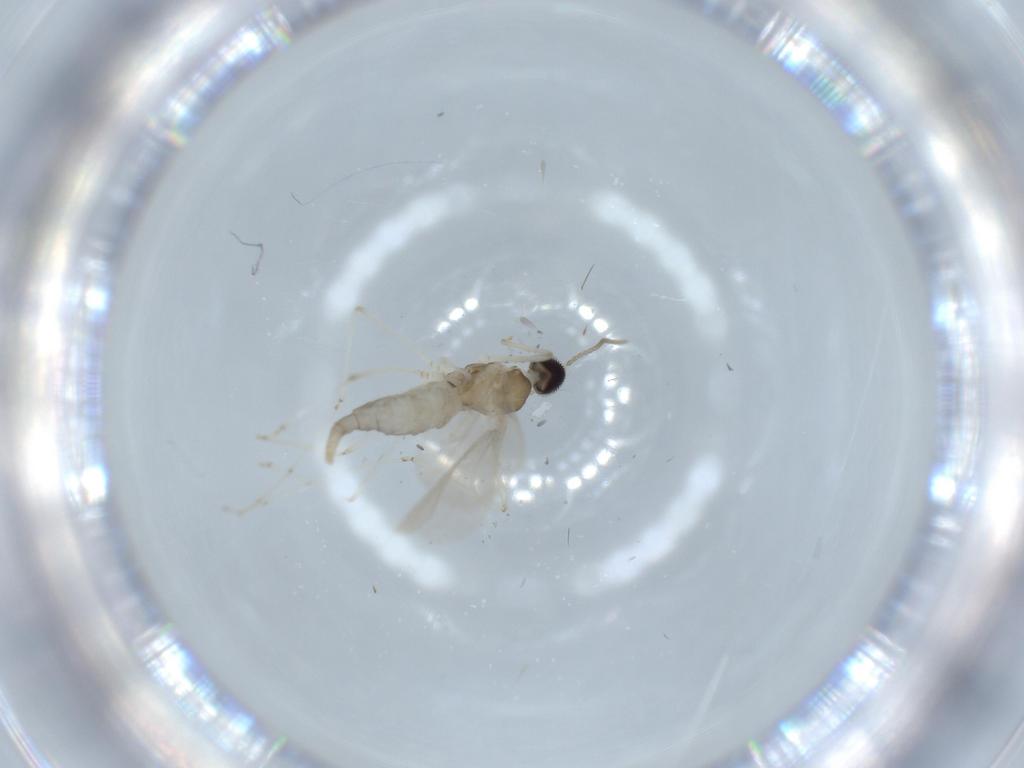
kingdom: Animalia
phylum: Arthropoda
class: Insecta
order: Diptera
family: Cecidomyiidae
